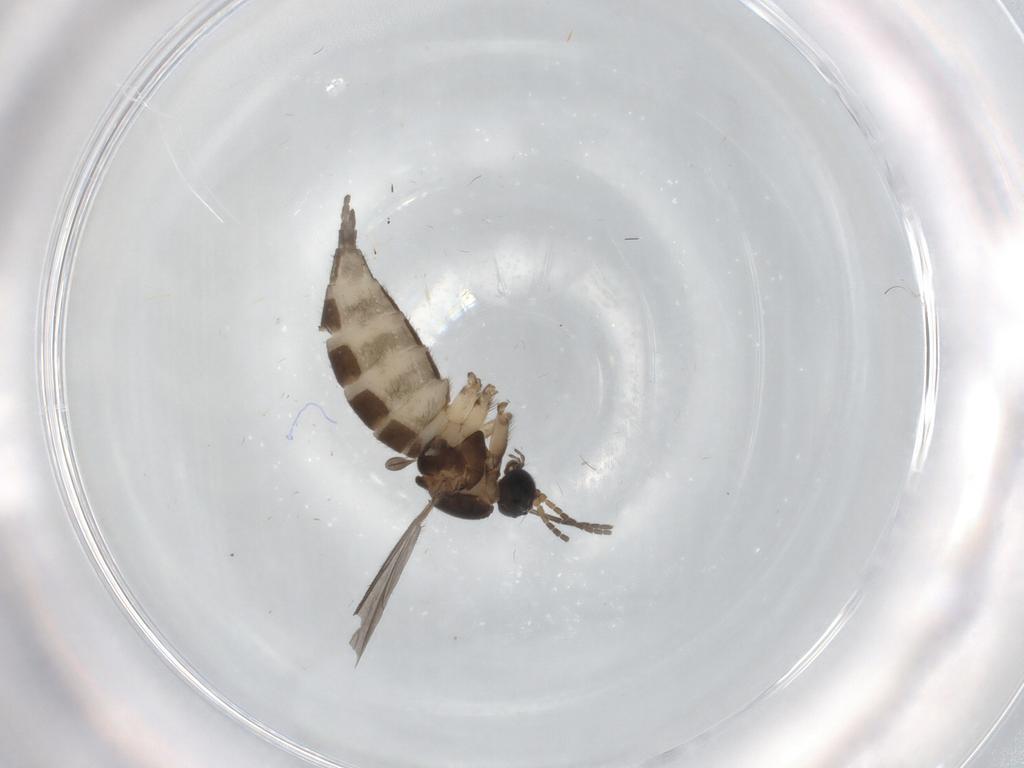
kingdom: Animalia
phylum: Arthropoda
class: Insecta
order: Diptera
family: Sciaridae
